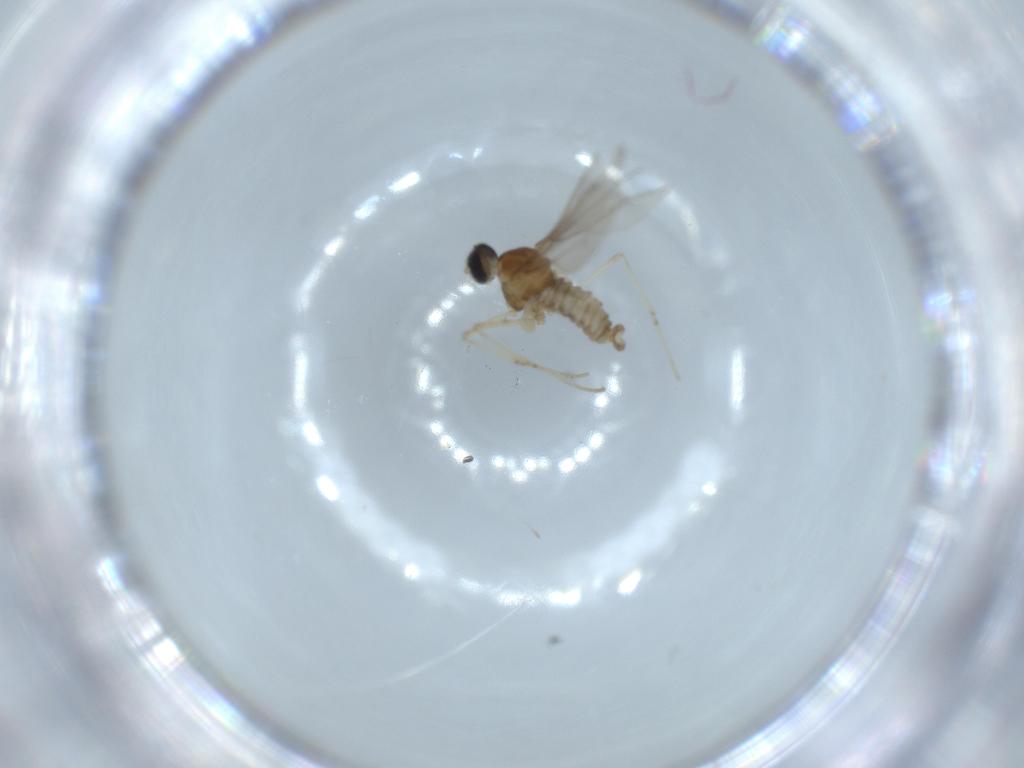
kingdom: Animalia
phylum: Arthropoda
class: Insecta
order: Diptera
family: Cecidomyiidae
